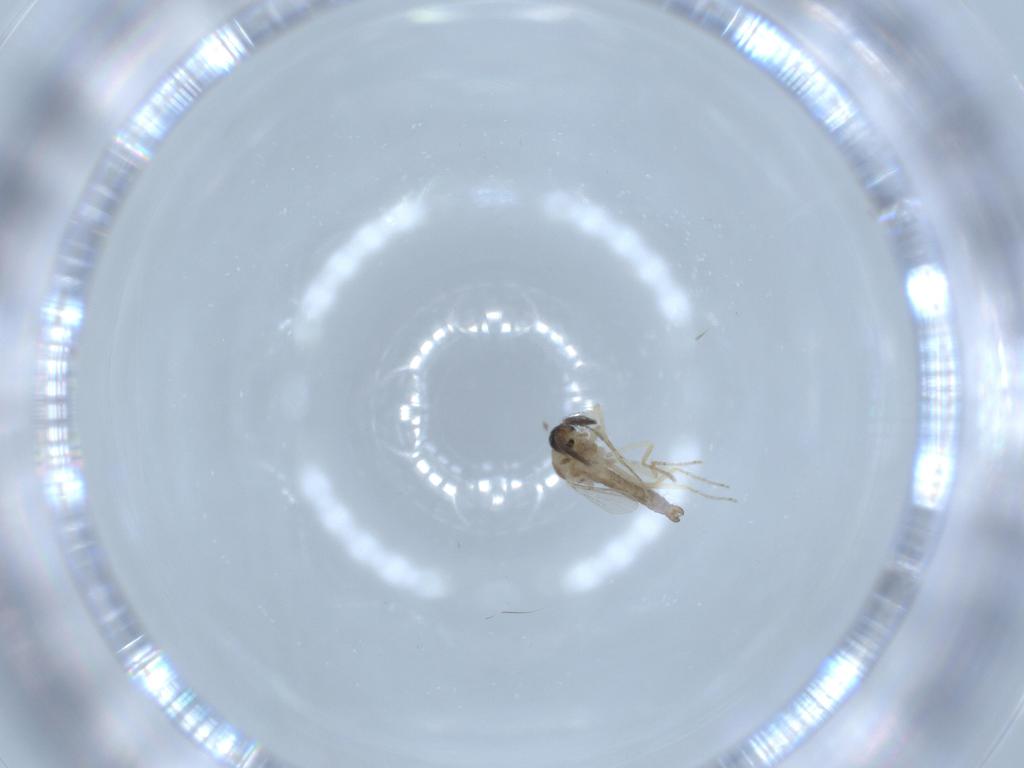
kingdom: Animalia
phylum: Arthropoda
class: Insecta
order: Diptera
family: Ceratopogonidae
